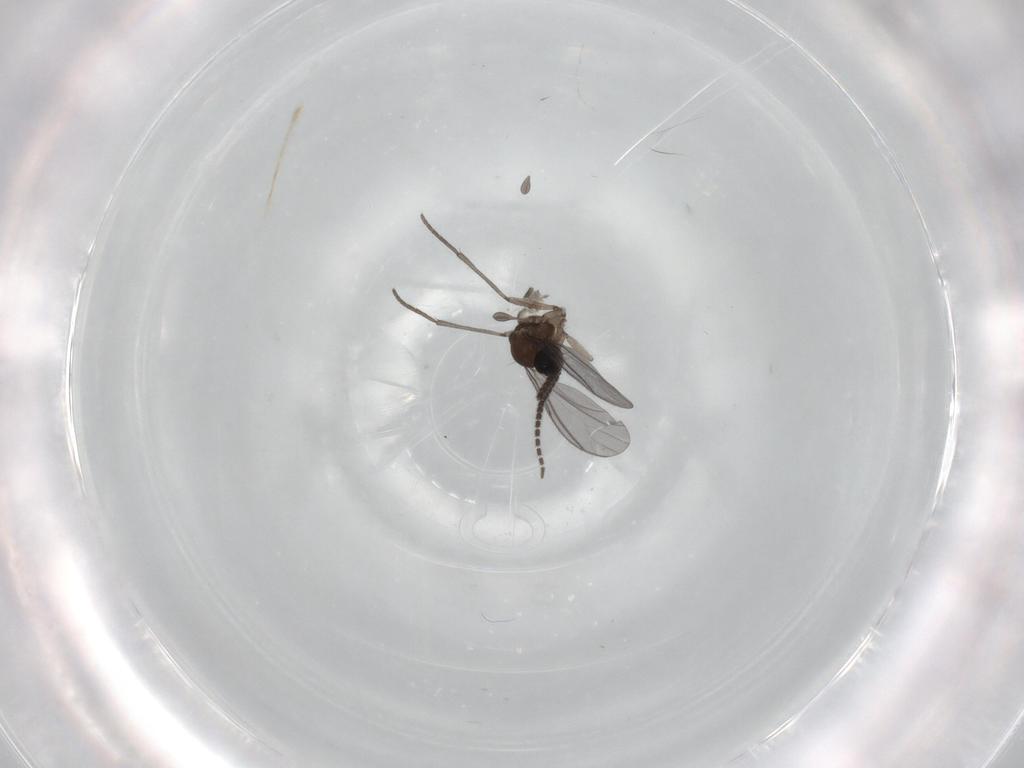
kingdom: Animalia
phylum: Arthropoda
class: Insecta
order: Diptera
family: Sciaridae
